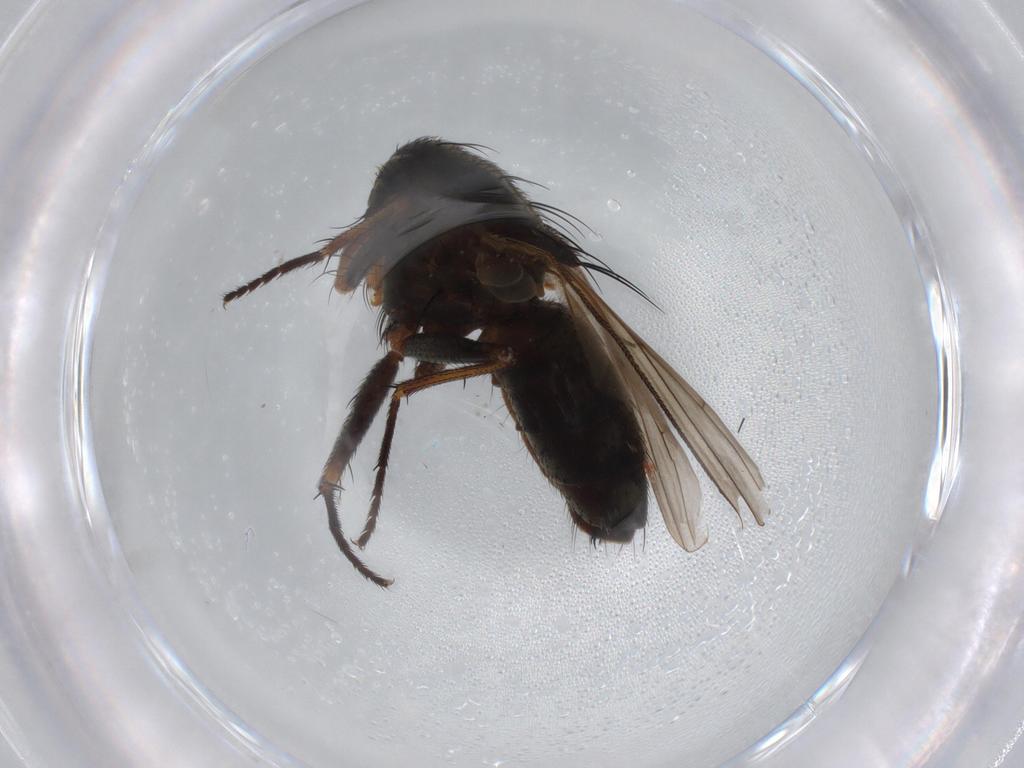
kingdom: Animalia
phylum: Arthropoda
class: Insecta
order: Diptera
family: Muscidae
